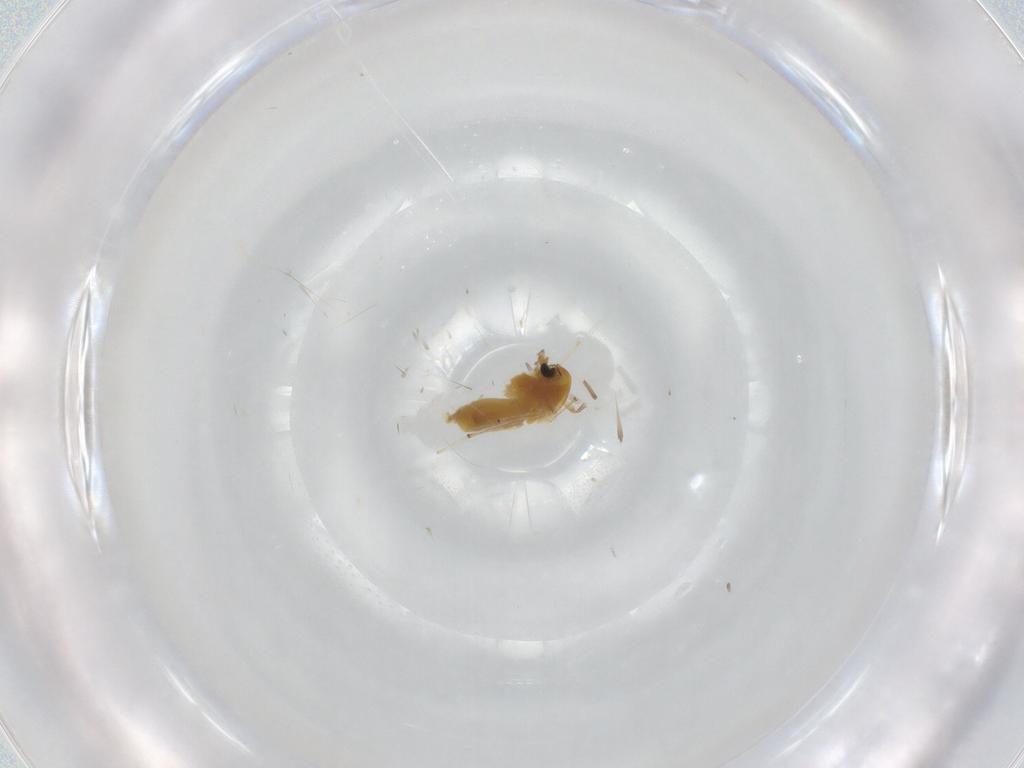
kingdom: Animalia
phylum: Arthropoda
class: Insecta
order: Diptera
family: Chironomidae
